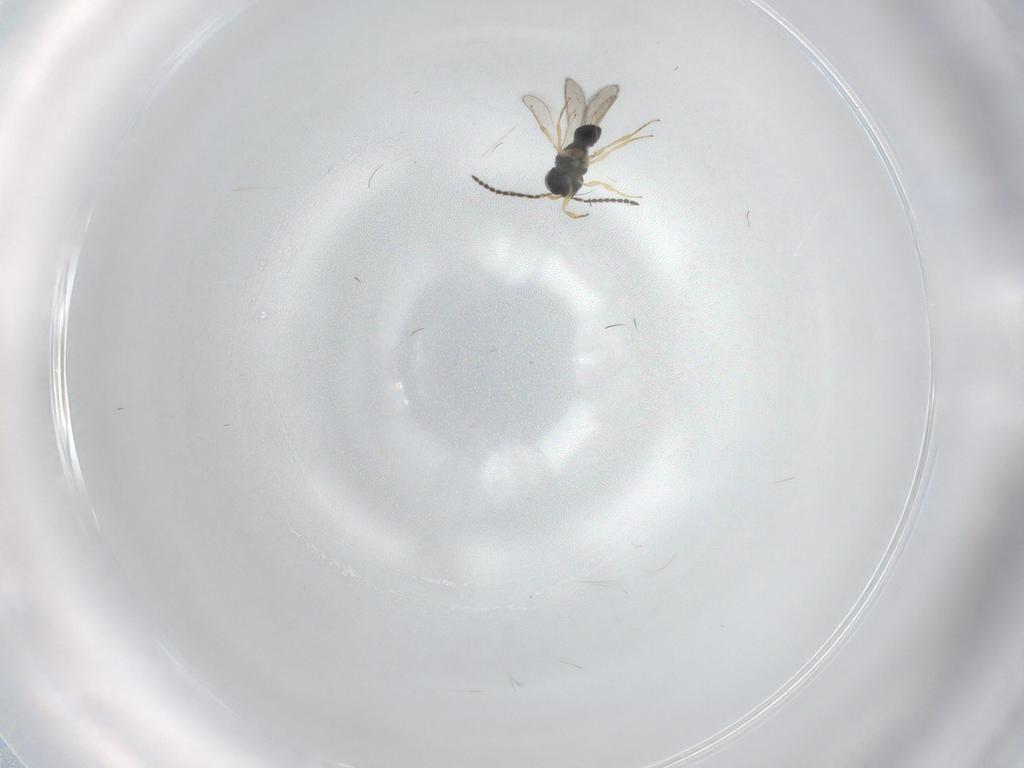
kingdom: Animalia
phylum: Arthropoda
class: Insecta
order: Hymenoptera
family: Scelionidae
